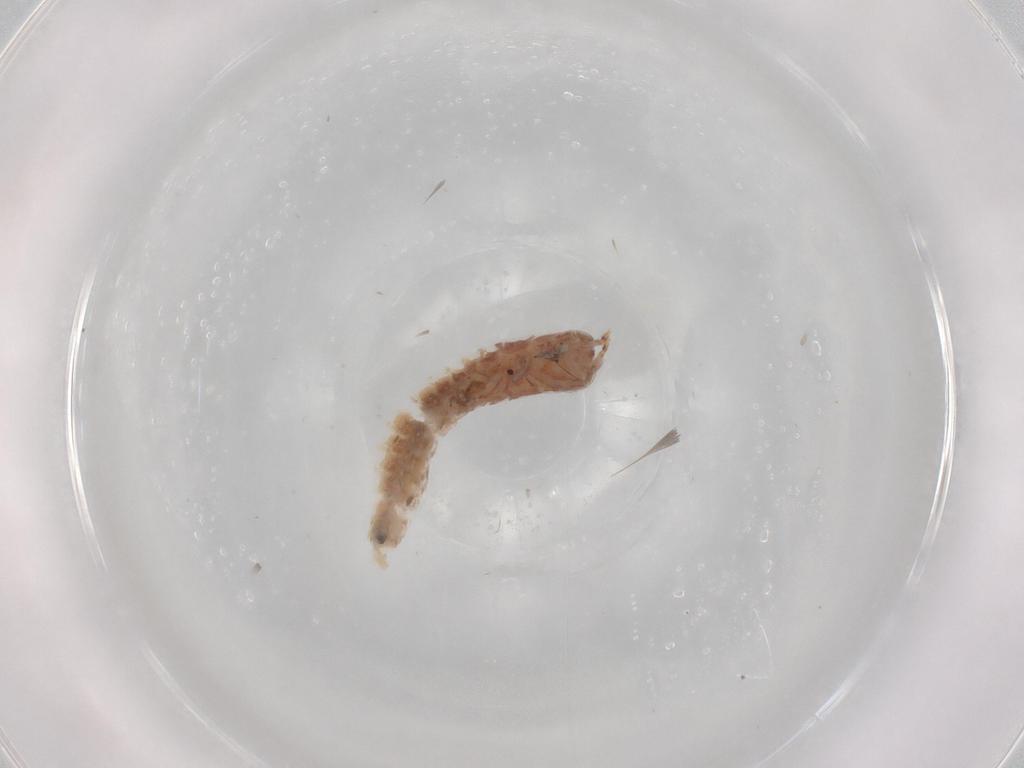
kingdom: Animalia
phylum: Arthropoda
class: Insecta
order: Archaeognatha
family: Machilidae
